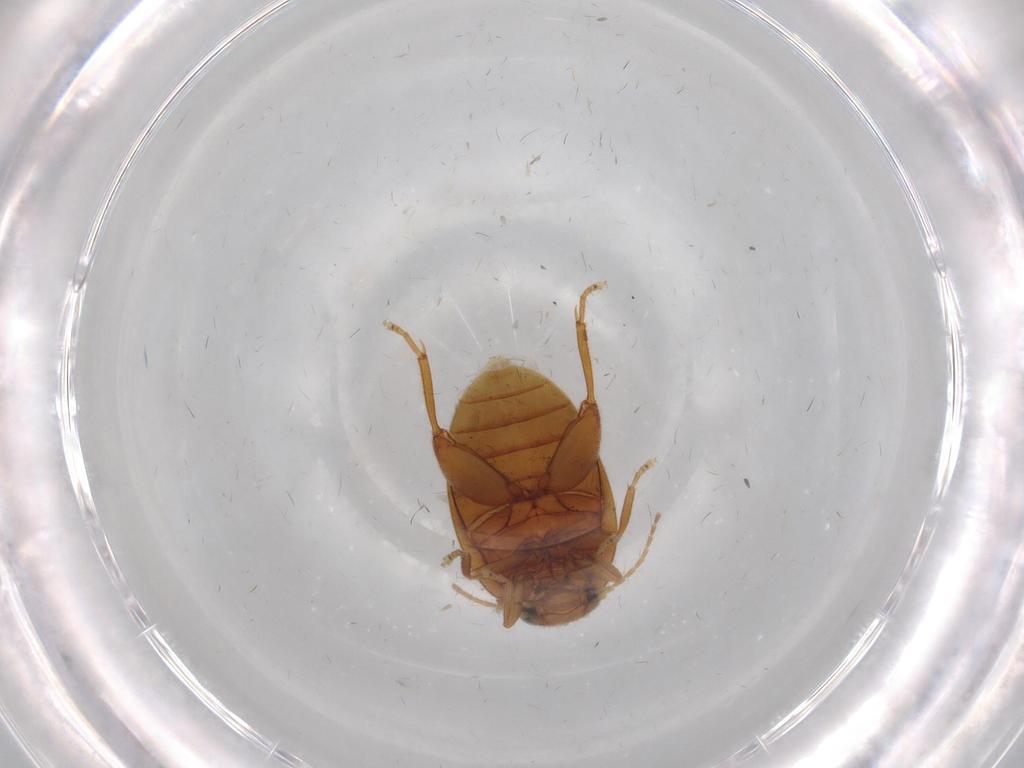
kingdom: Animalia
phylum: Arthropoda
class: Insecta
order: Coleoptera
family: Scirtidae
